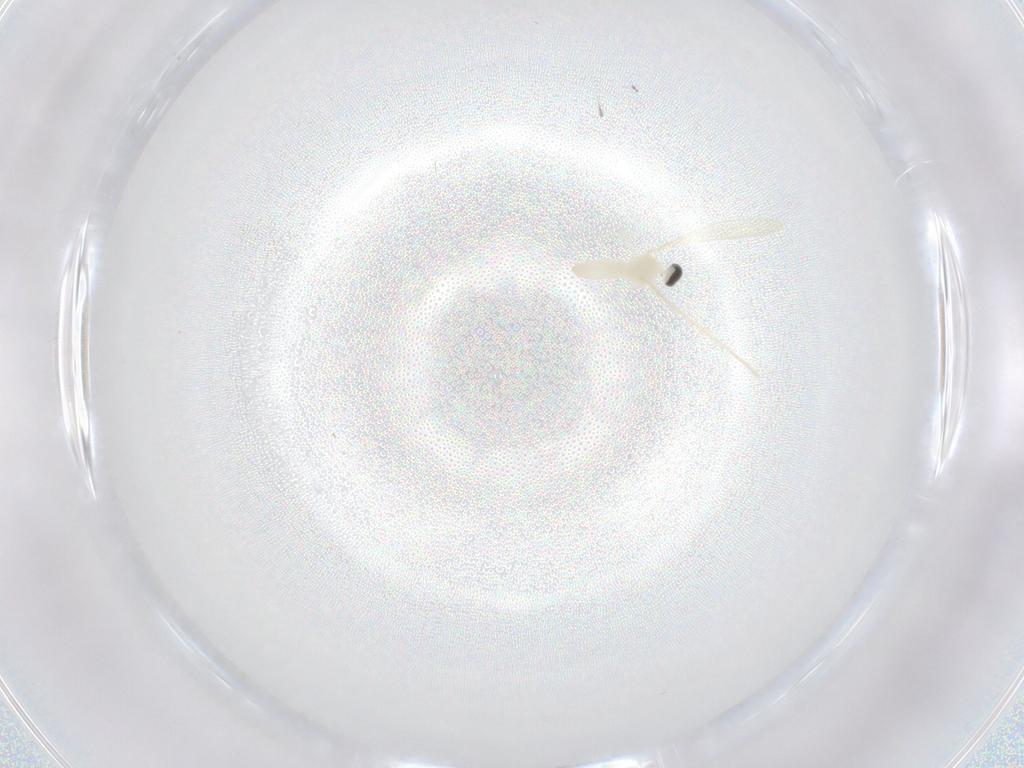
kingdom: Animalia
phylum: Arthropoda
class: Insecta
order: Diptera
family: Cecidomyiidae
